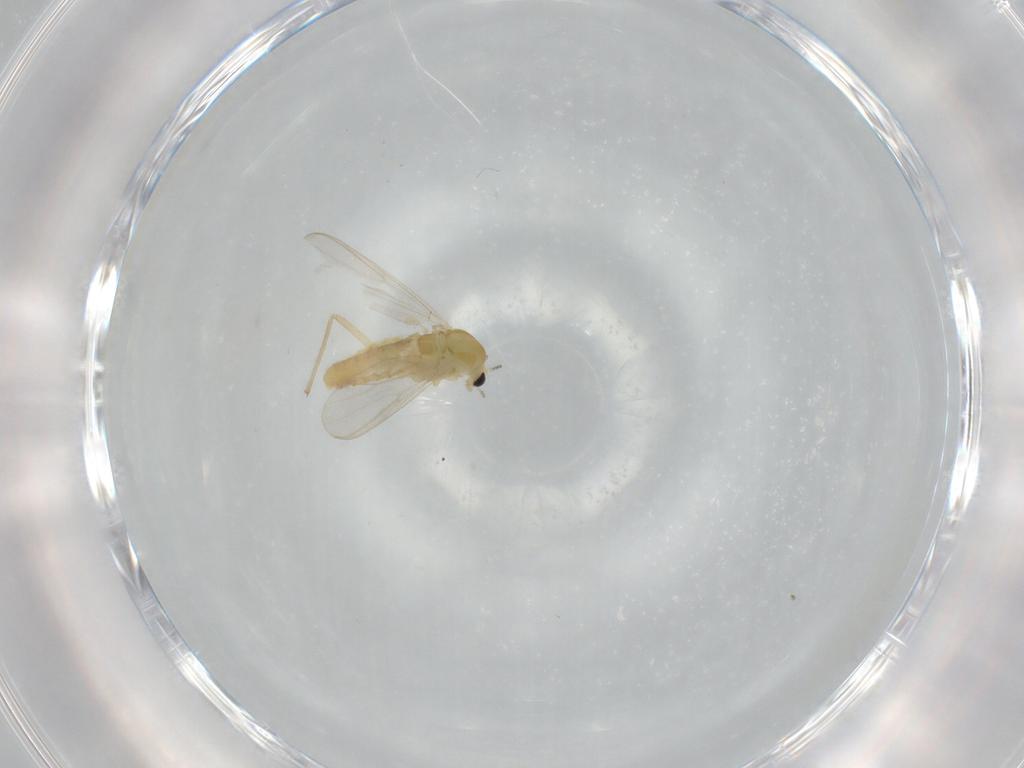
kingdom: Animalia
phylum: Arthropoda
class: Insecta
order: Diptera
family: Chironomidae
